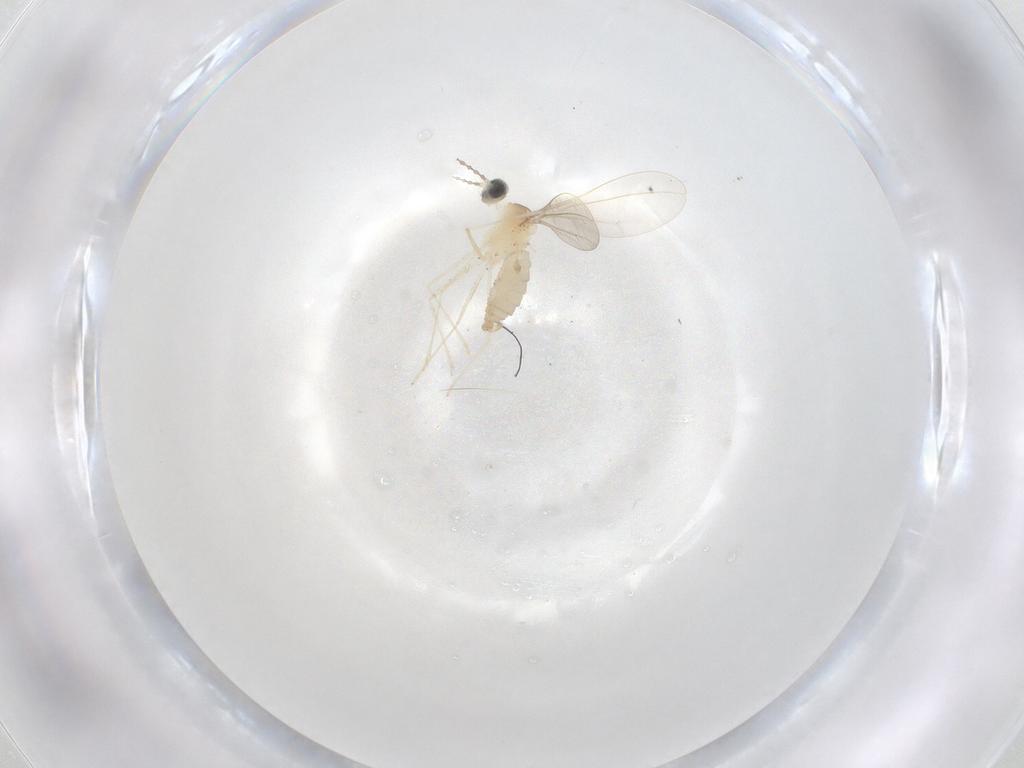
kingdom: Animalia
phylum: Arthropoda
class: Insecta
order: Diptera
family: Cecidomyiidae
